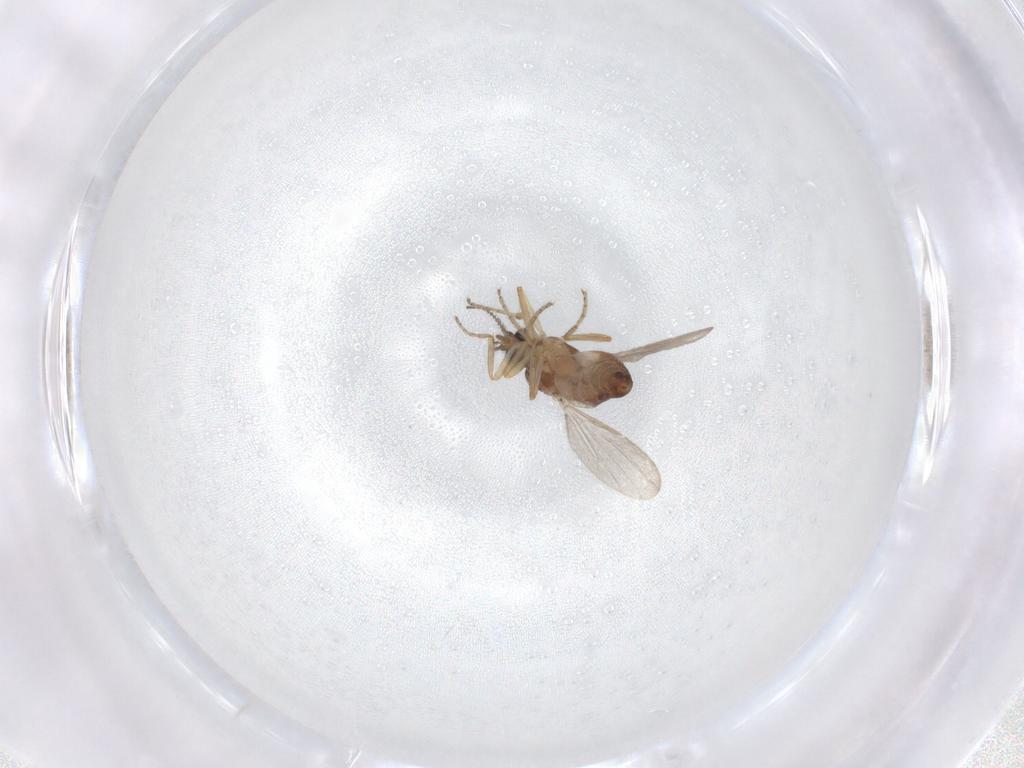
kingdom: Animalia
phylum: Arthropoda
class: Insecta
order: Diptera
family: Ceratopogonidae
